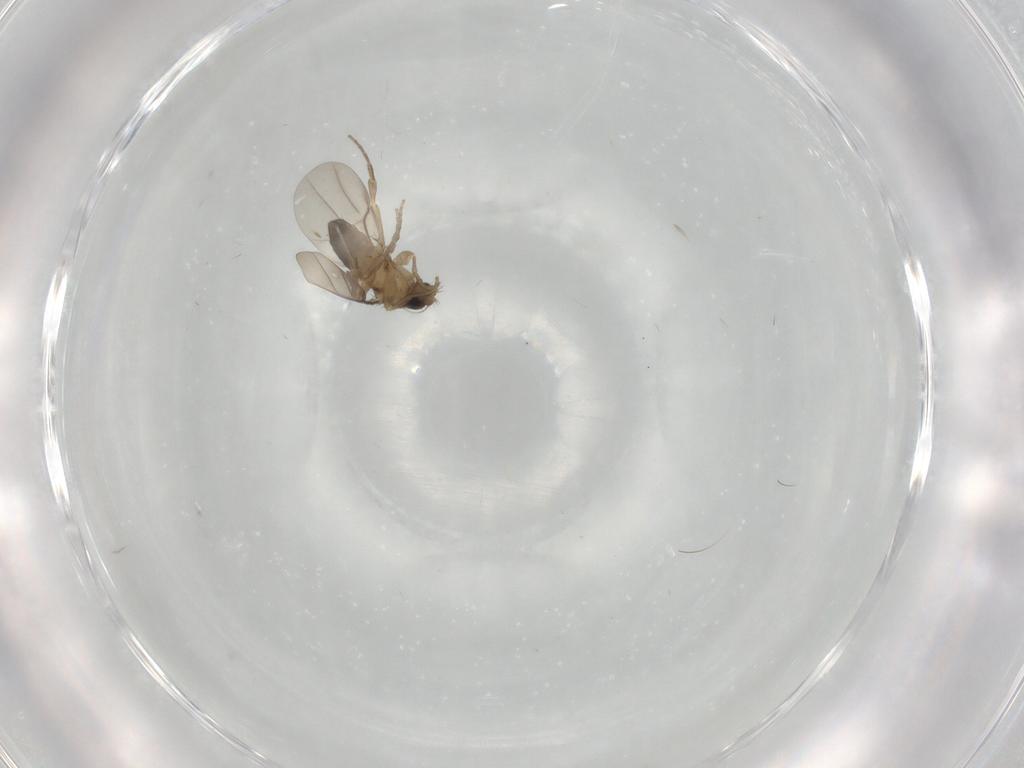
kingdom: Animalia
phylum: Arthropoda
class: Insecta
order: Diptera
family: Phoridae
